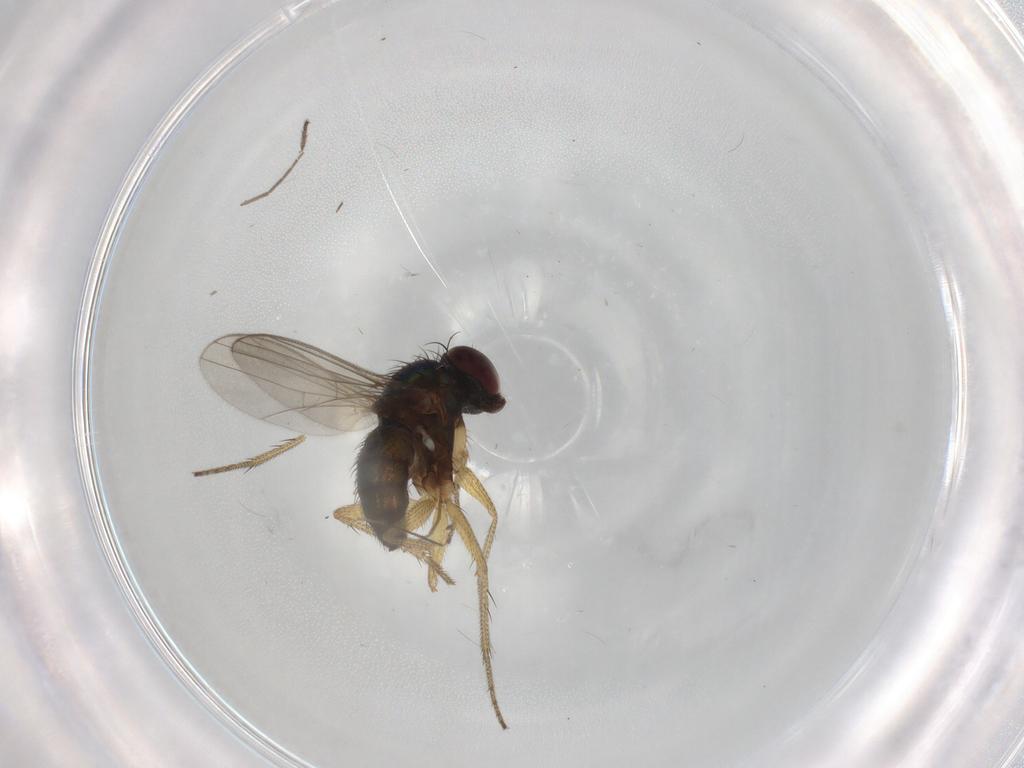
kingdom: Animalia
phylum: Arthropoda
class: Insecta
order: Diptera
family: Dolichopodidae
